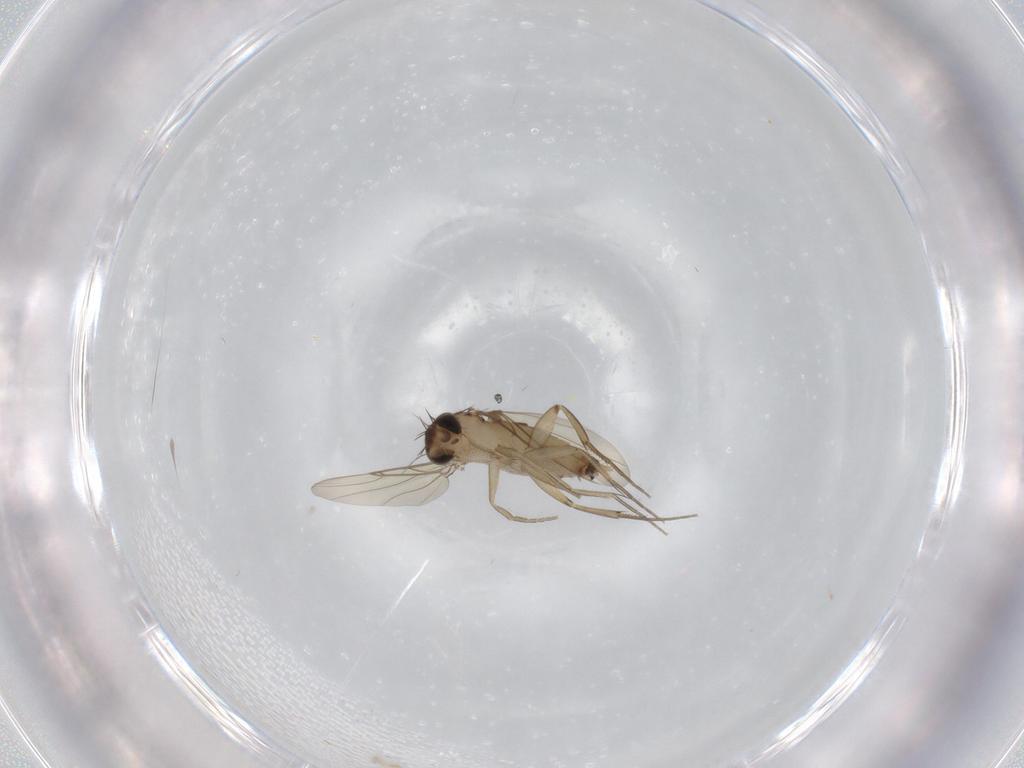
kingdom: Animalia
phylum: Arthropoda
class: Insecta
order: Diptera
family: Phoridae
